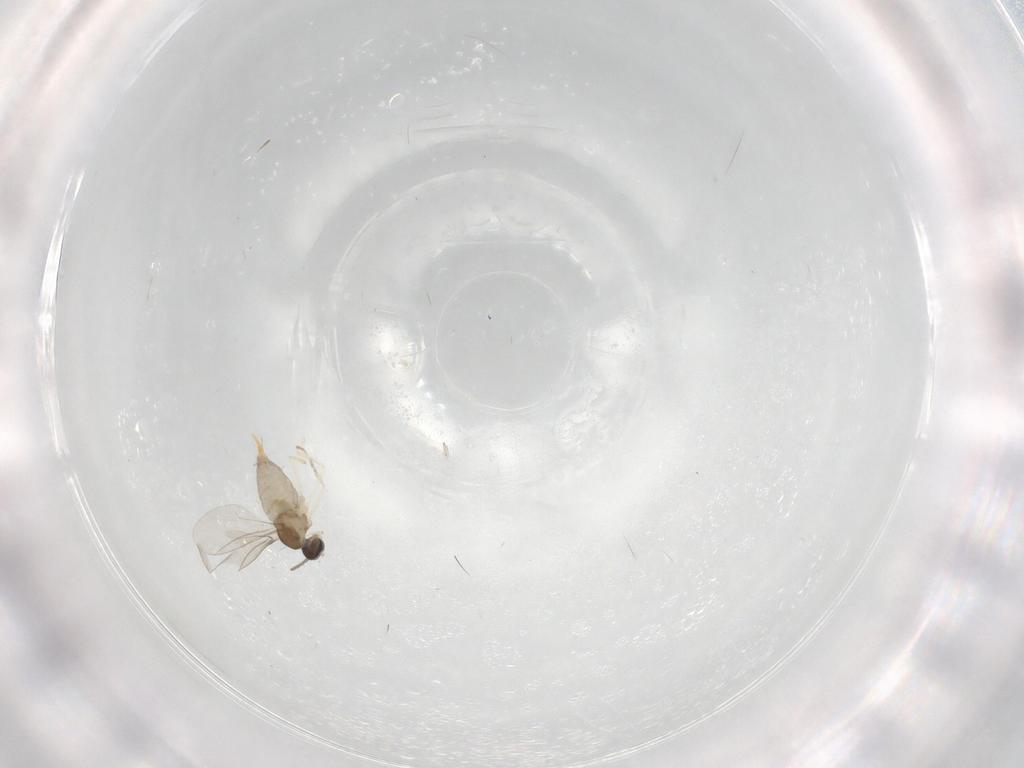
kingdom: Animalia
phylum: Arthropoda
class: Insecta
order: Diptera
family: Cecidomyiidae
